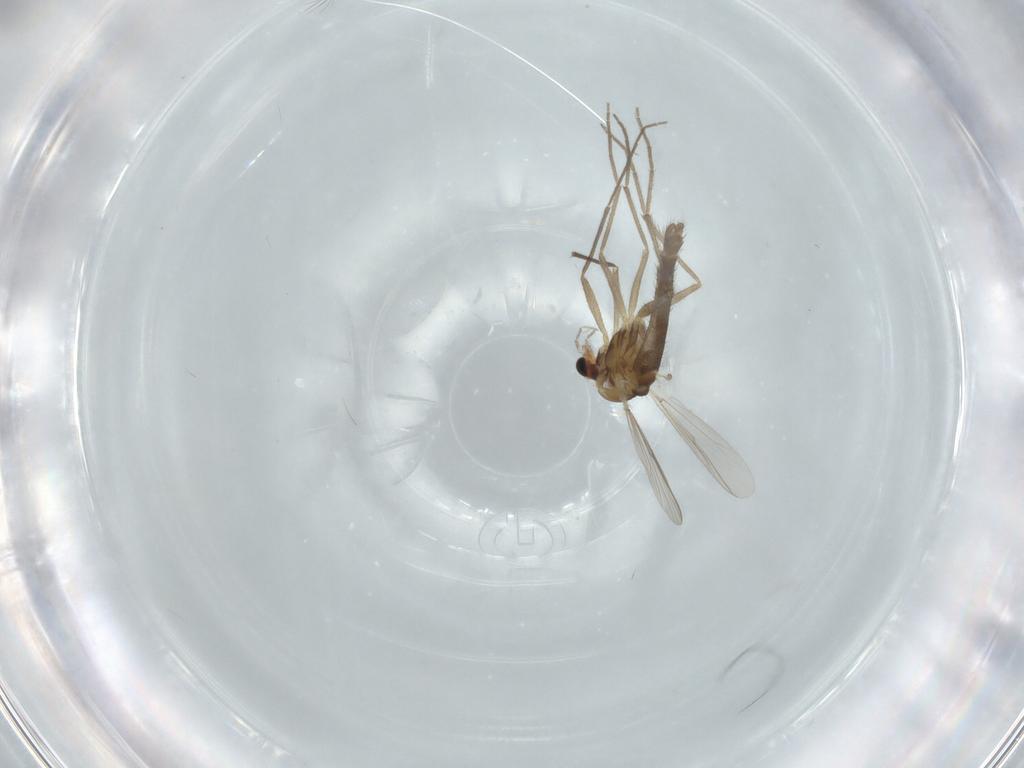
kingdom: Animalia
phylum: Arthropoda
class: Insecta
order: Diptera
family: Chironomidae
